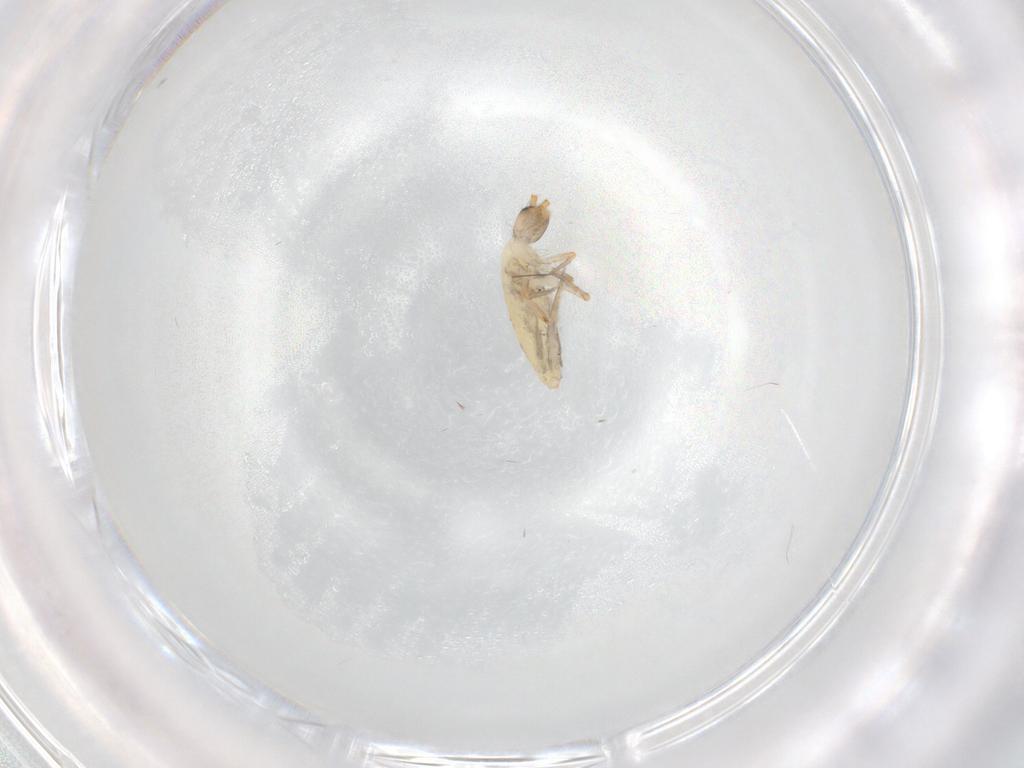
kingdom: Animalia
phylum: Arthropoda
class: Collembola
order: Entomobryomorpha
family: Entomobryidae
